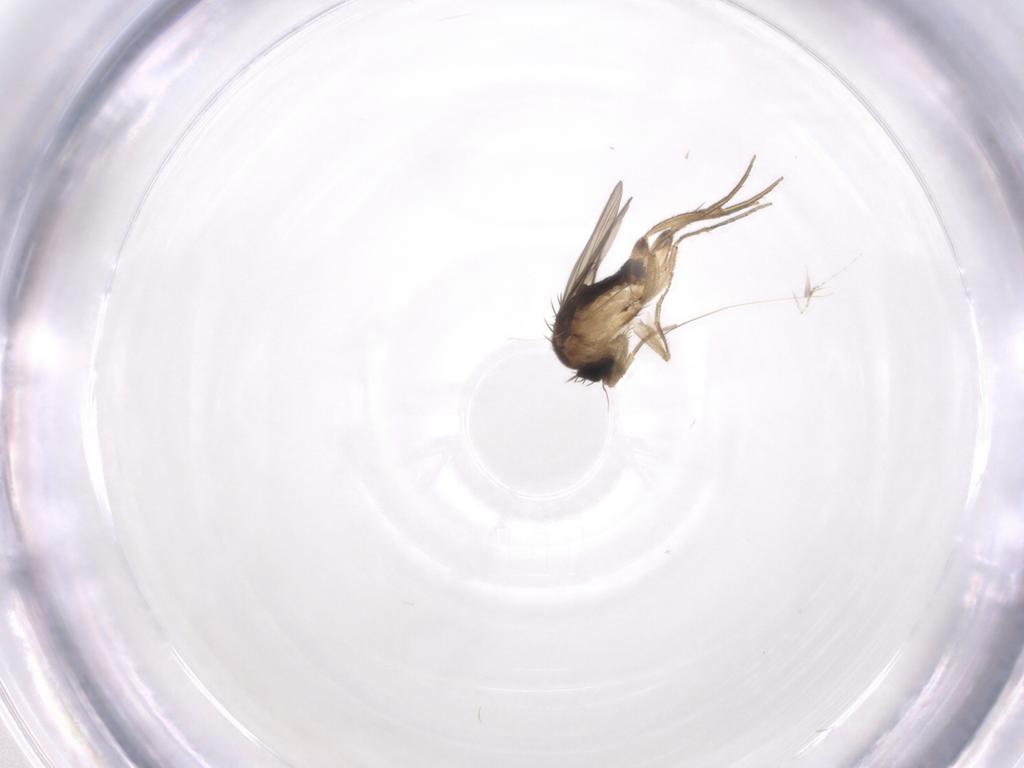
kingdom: Animalia
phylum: Arthropoda
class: Insecta
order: Diptera
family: Phoridae
